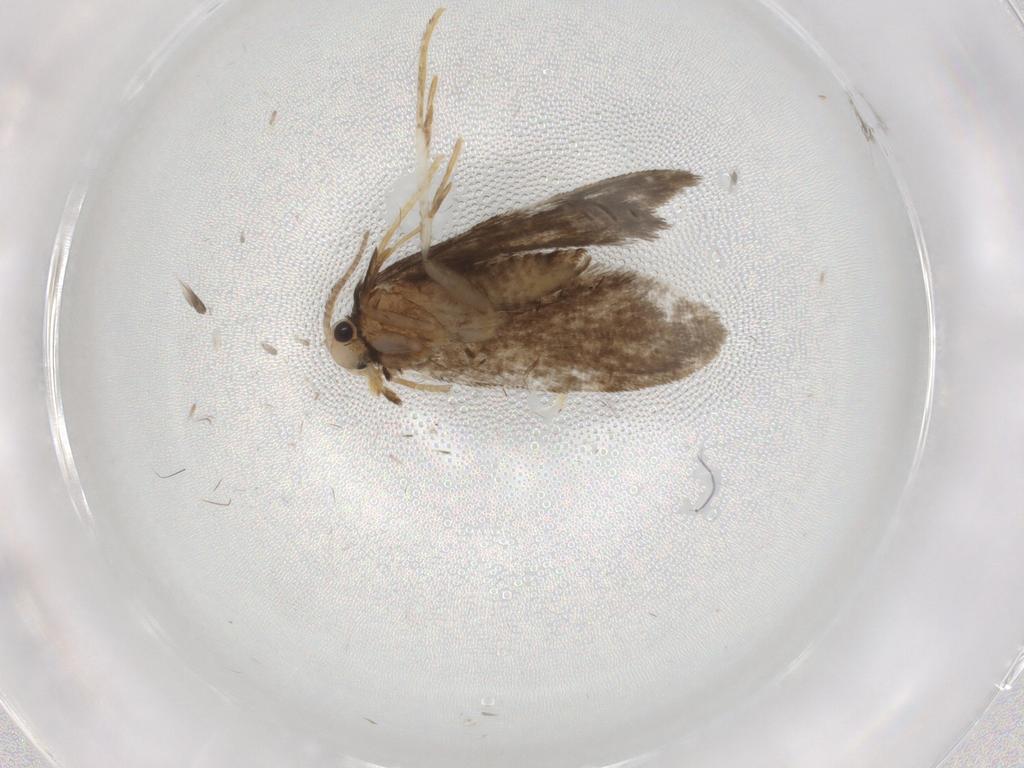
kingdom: Animalia
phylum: Arthropoda
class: Insecta
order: Lepidoptera
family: Psychidae
